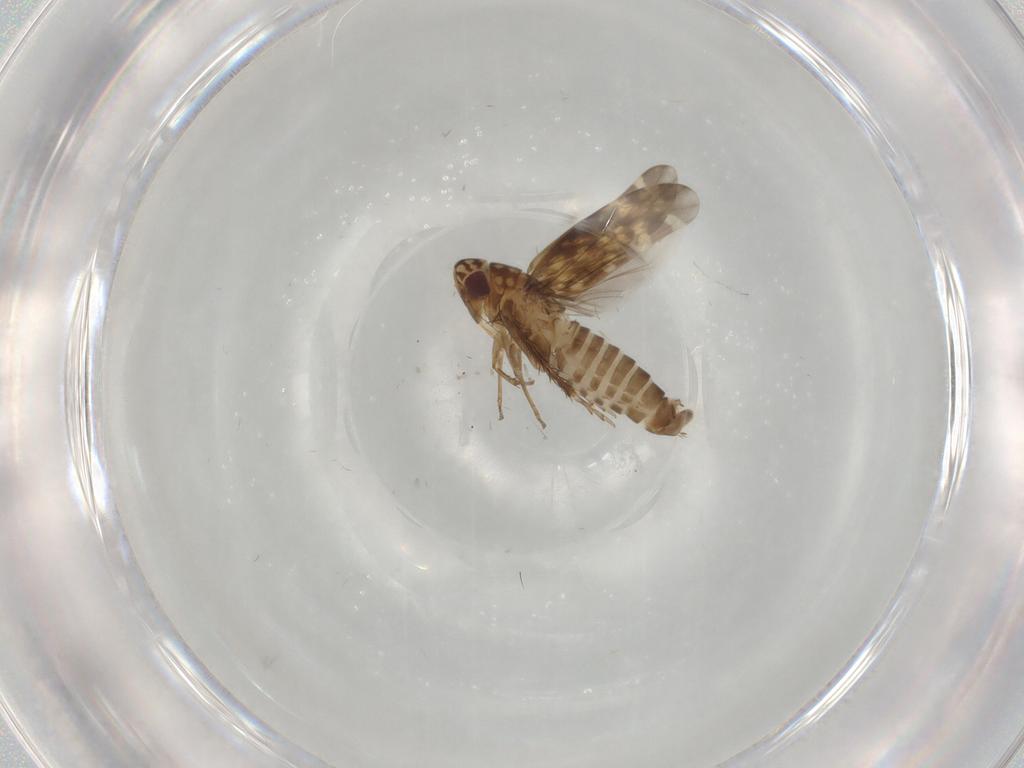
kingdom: Animalia
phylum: Arthropoda
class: Insecta
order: Hemiptera
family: Cicadellidae
